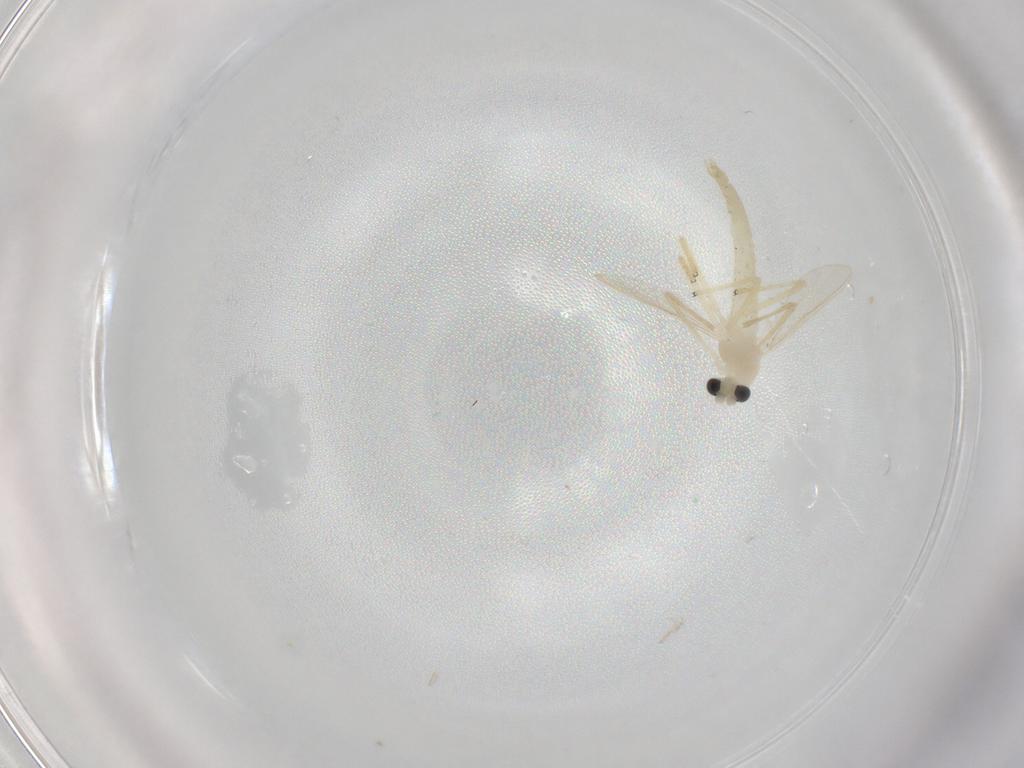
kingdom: Animalia
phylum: Arthropoda
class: Insecta
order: Diptera
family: Chironomidae
